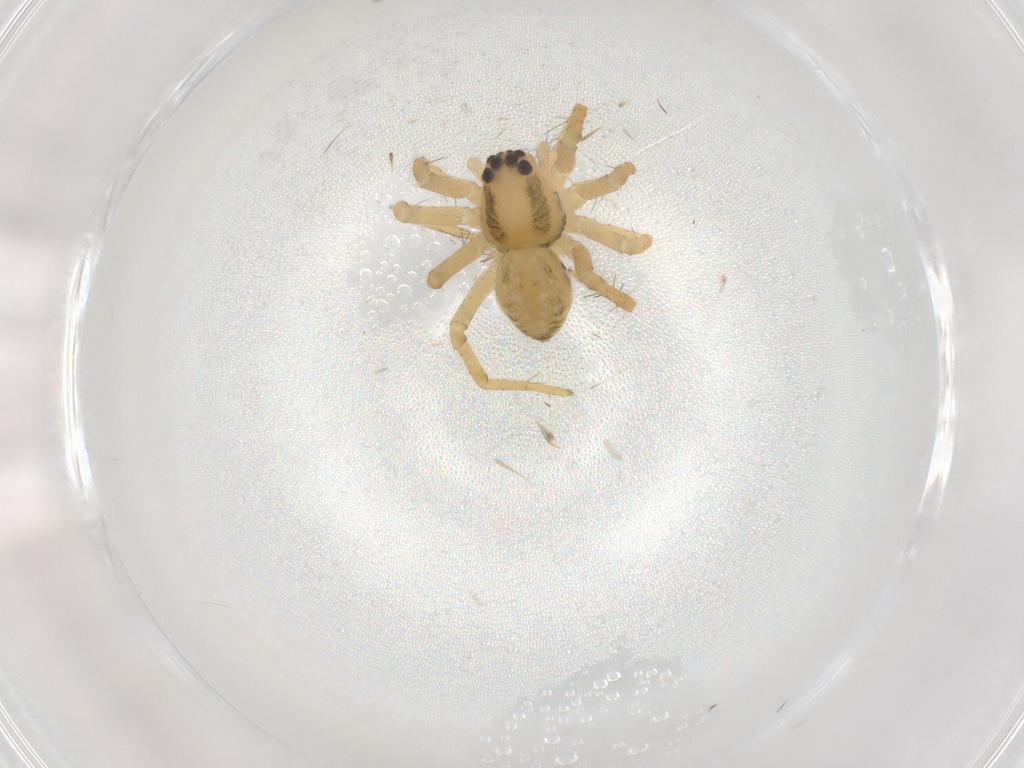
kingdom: Animalia
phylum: Arthropoda
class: Arachnida
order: Araneae
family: Pisauridae
